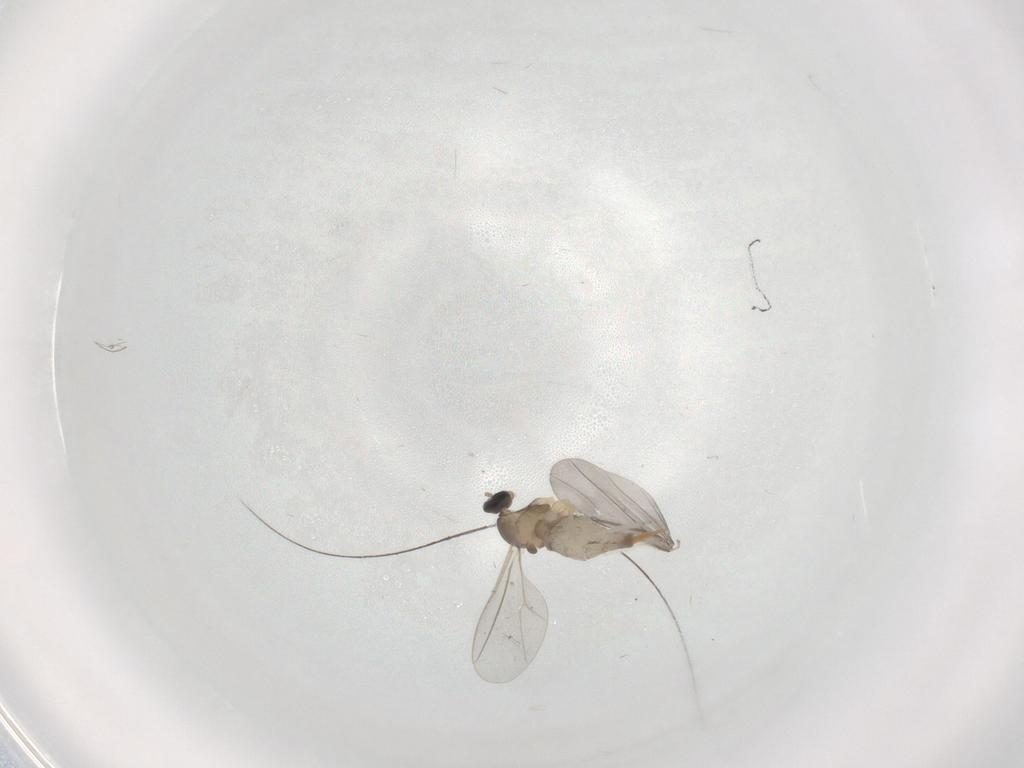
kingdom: Animalia
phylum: Arthropoda
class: Insecta
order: Diptera
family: Cecidomyiidae
